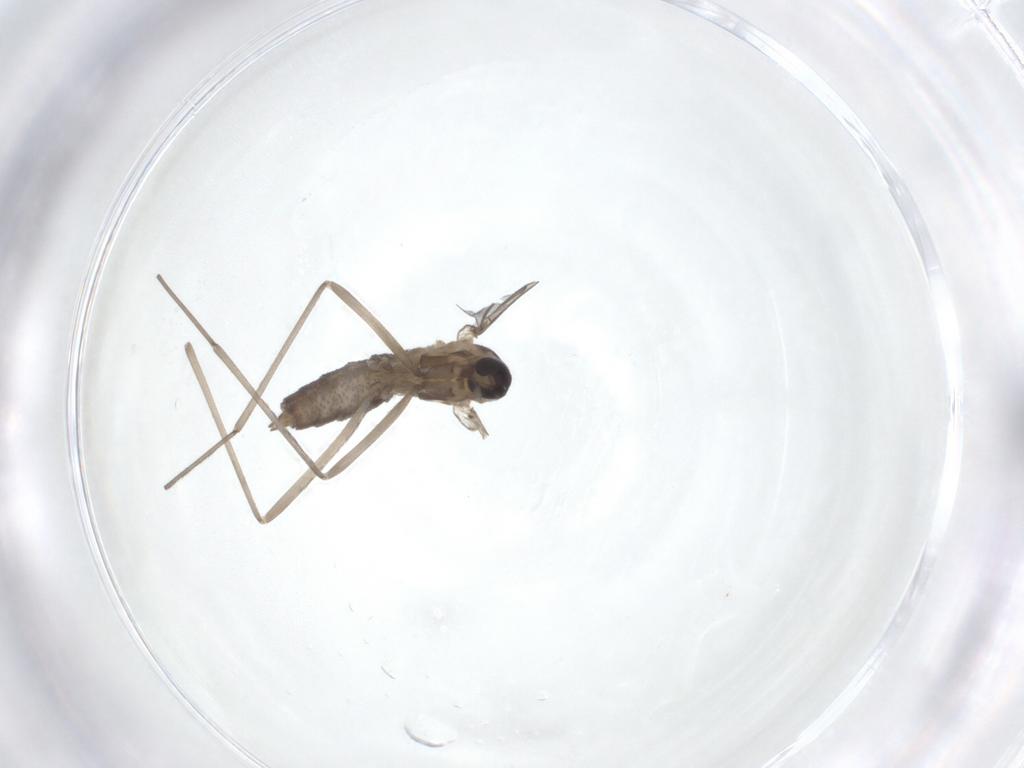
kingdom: Animalia
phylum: Arthropoda
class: Insecta
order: Diptera
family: Cecidomyiidae
